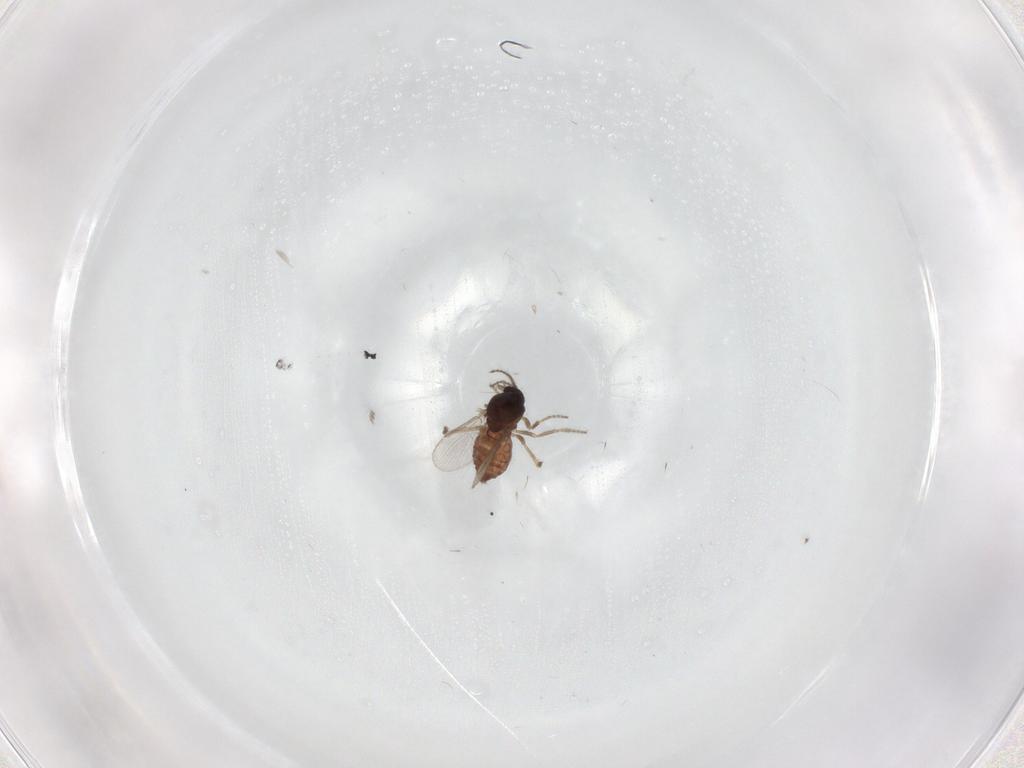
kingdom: Animalia
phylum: Arthropoda
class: Insecta
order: Diptera
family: Ceratopogonidae
